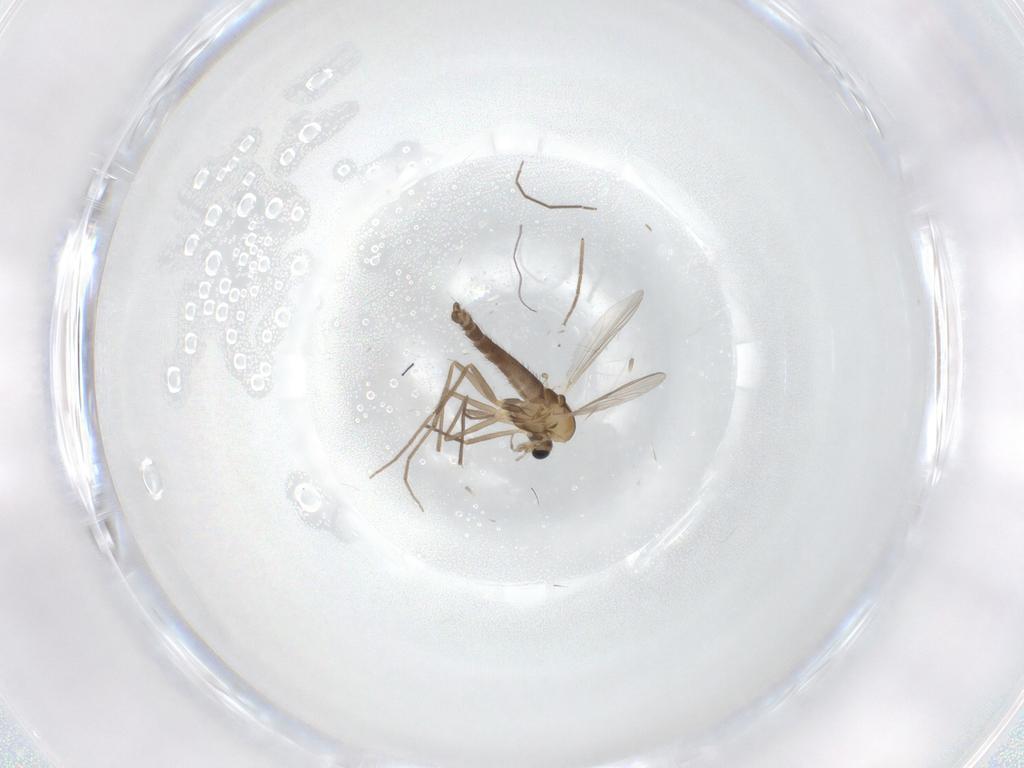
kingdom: Animalia
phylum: Arthropoda
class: Insecta
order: Diptera
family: Chironomidae
